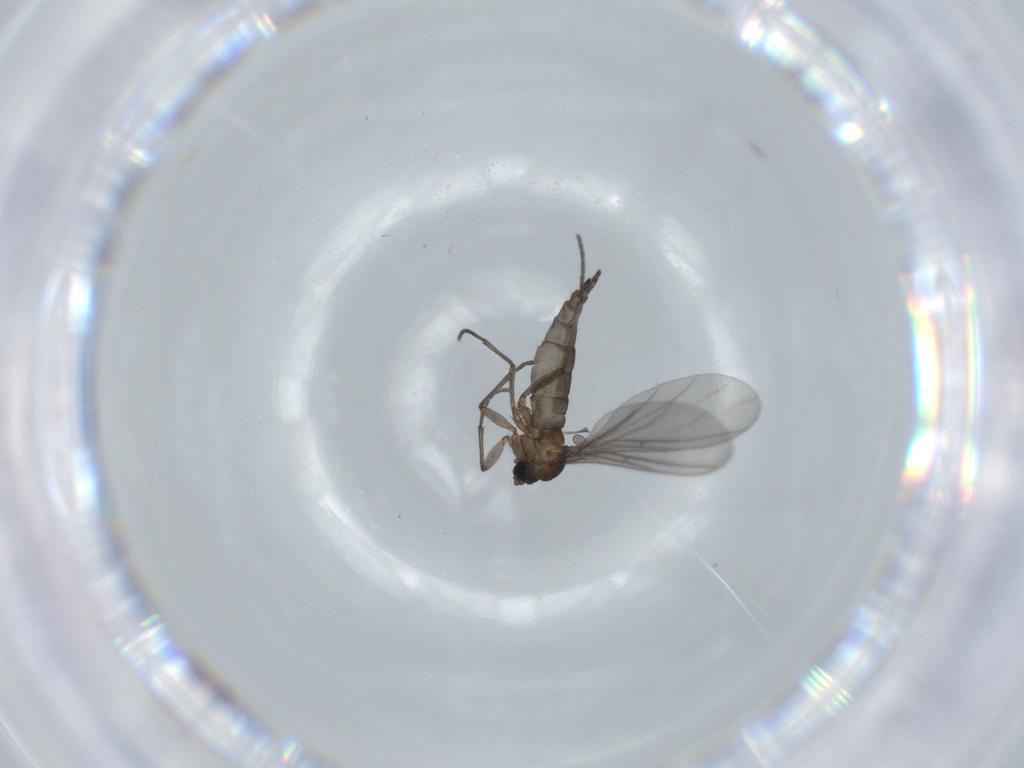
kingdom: Animalia
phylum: Arthropoda
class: Insecta
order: Diptera
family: Sciaridae
